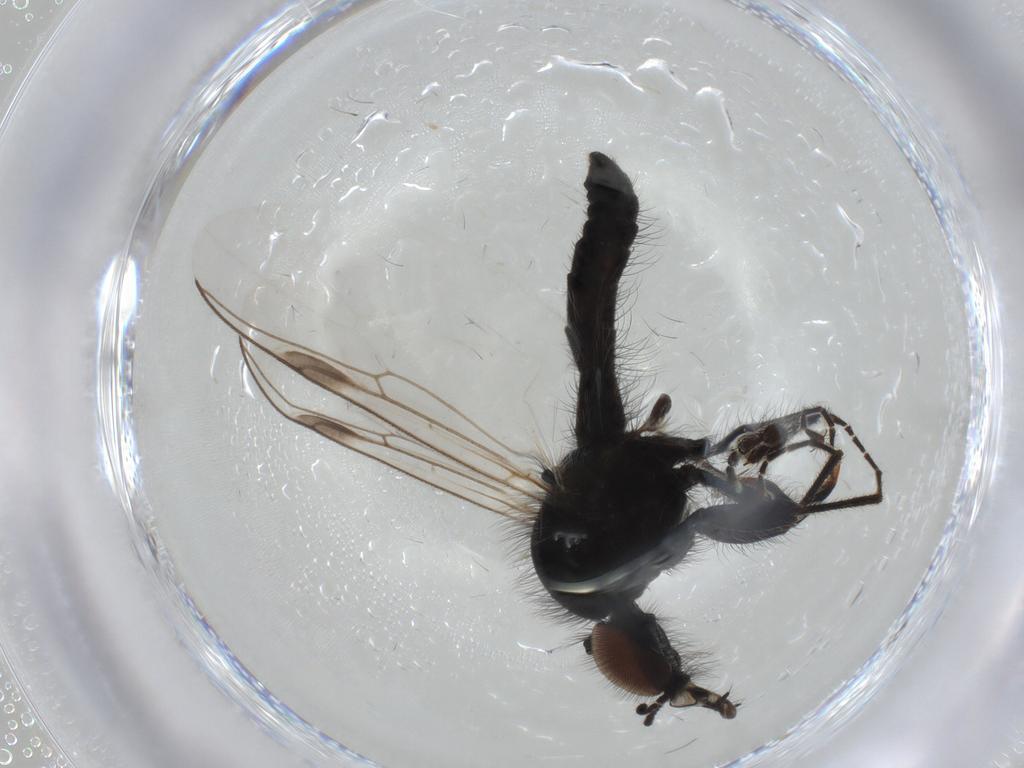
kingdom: Animalia
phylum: Arthropoda
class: Insecta
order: Diptera
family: Bibionidae
